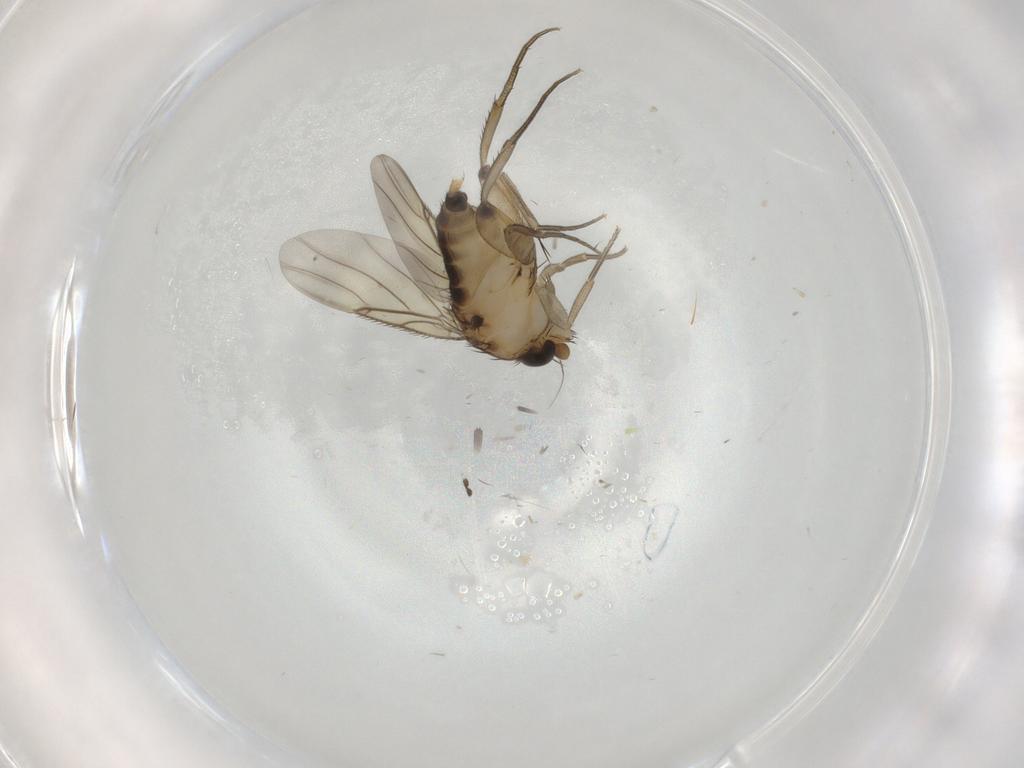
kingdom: Animalia
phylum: Arthropoda
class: Insecta
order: Diptera
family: Phoridae
